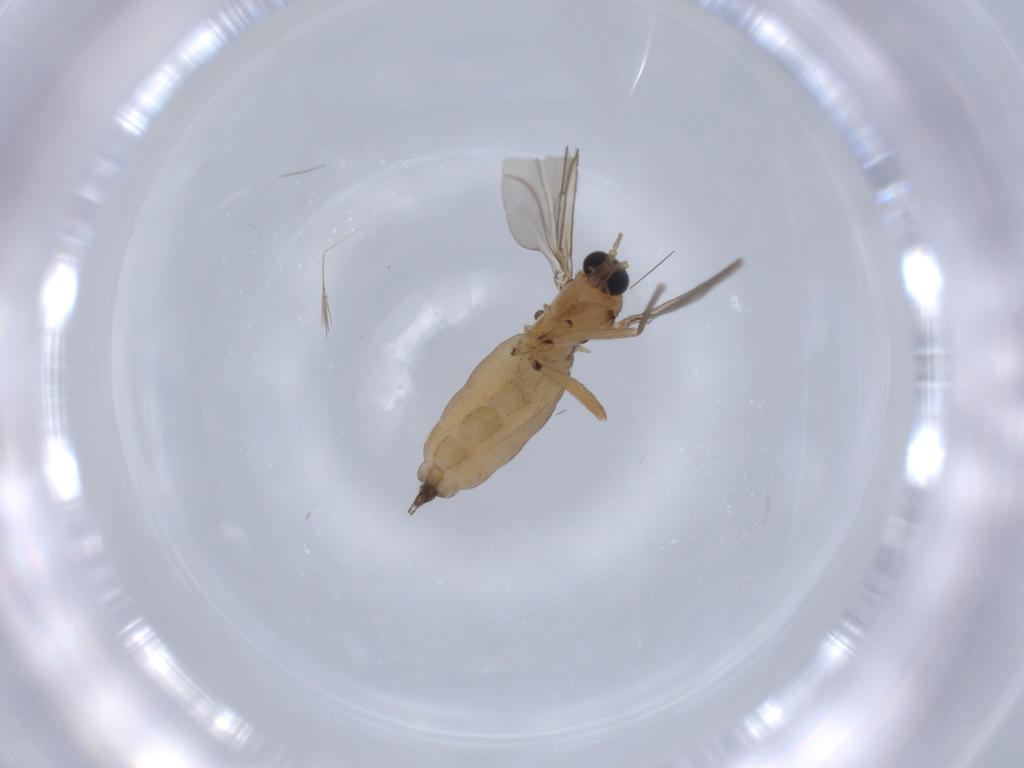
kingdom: Animalia
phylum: Arthropoda
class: Insecta
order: Diptera
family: Sciaridae
